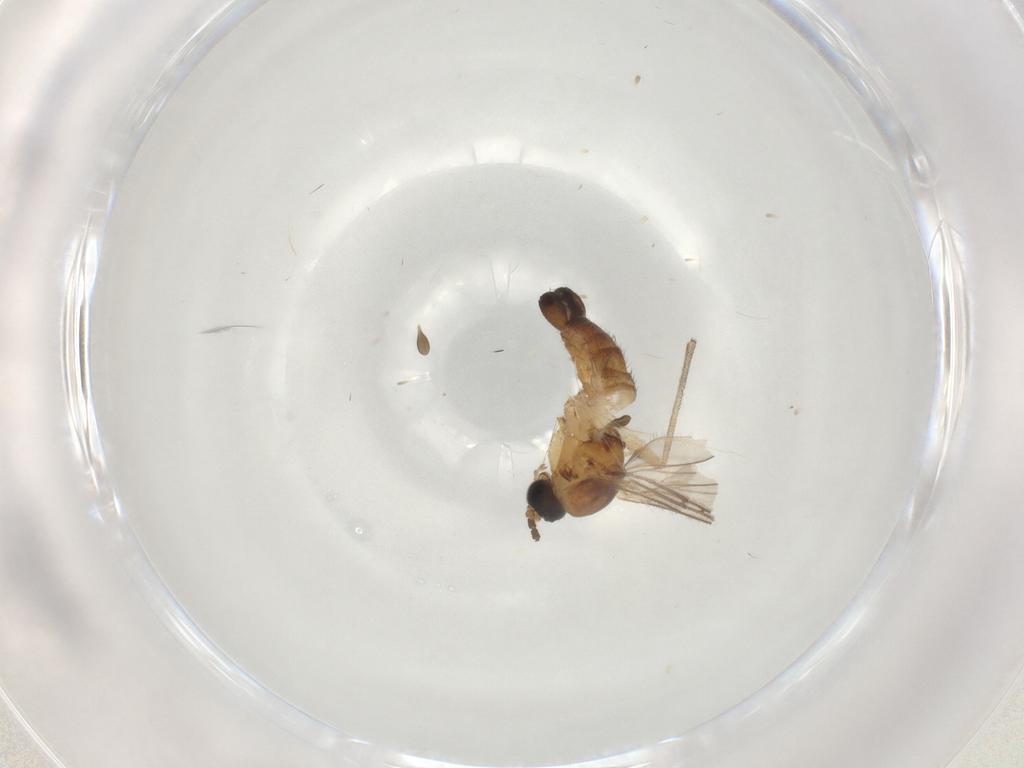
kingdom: Animalia
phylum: Arthropoda
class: Insecta
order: Diptera
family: Sciaridae
